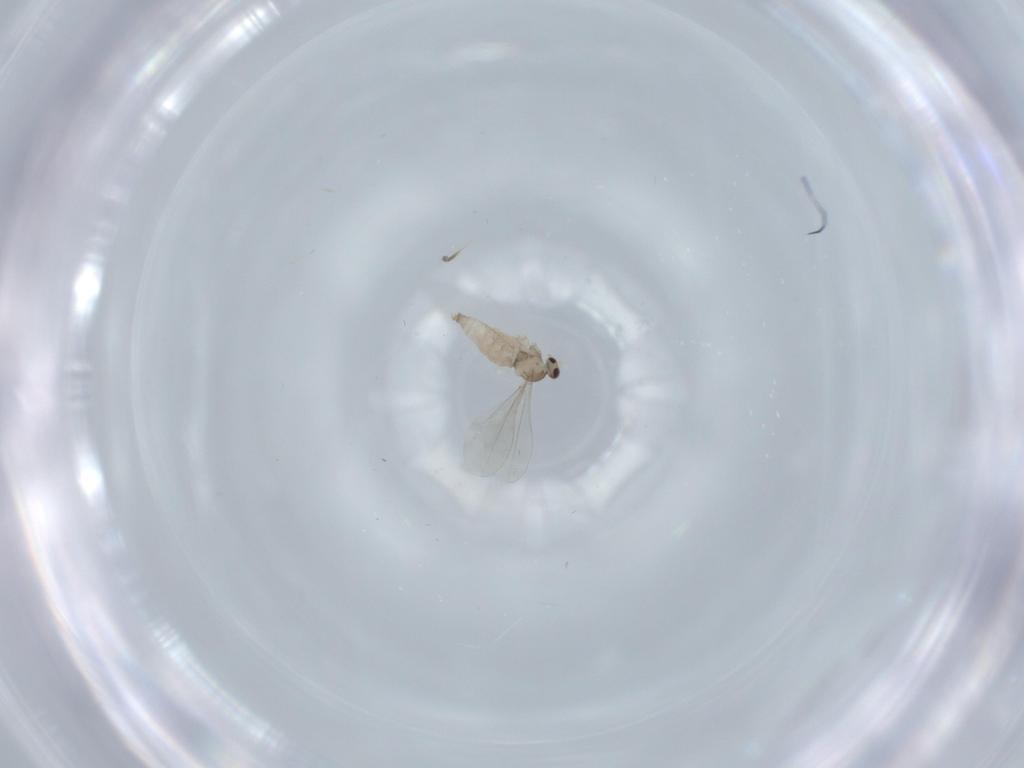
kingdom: Animalia
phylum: Arthropoda
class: Insecta
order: Diptera
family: Cecidomyiidae
